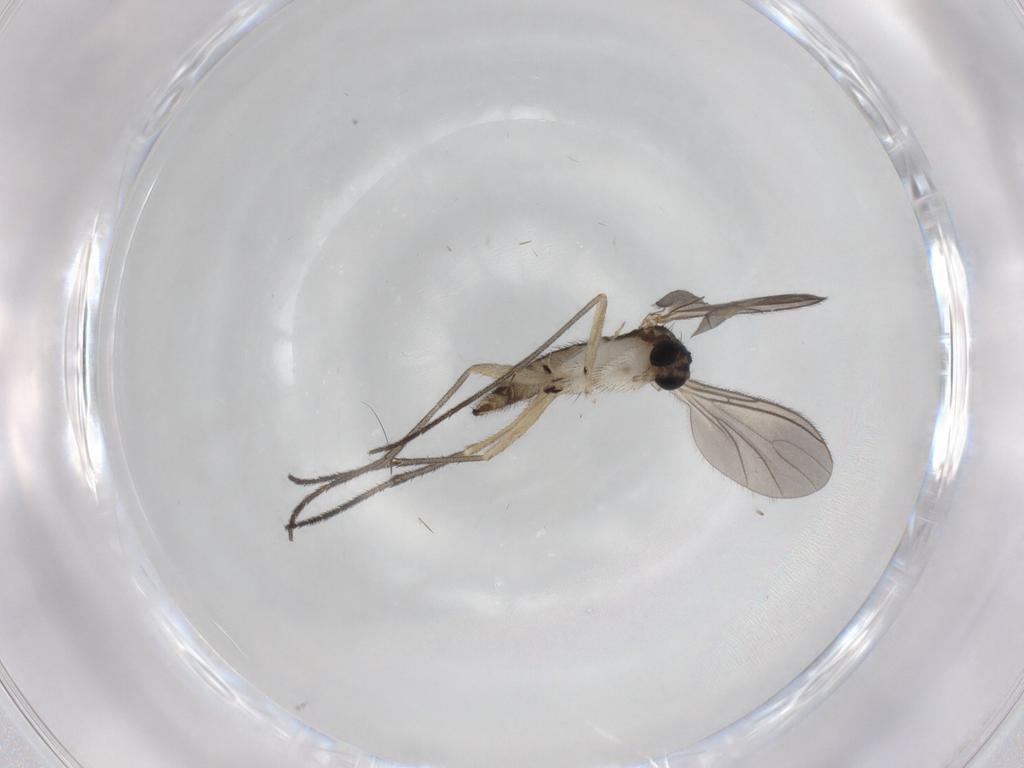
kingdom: Animalia
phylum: Arthropoda
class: Insecta
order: Diptera
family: Sciaridae
